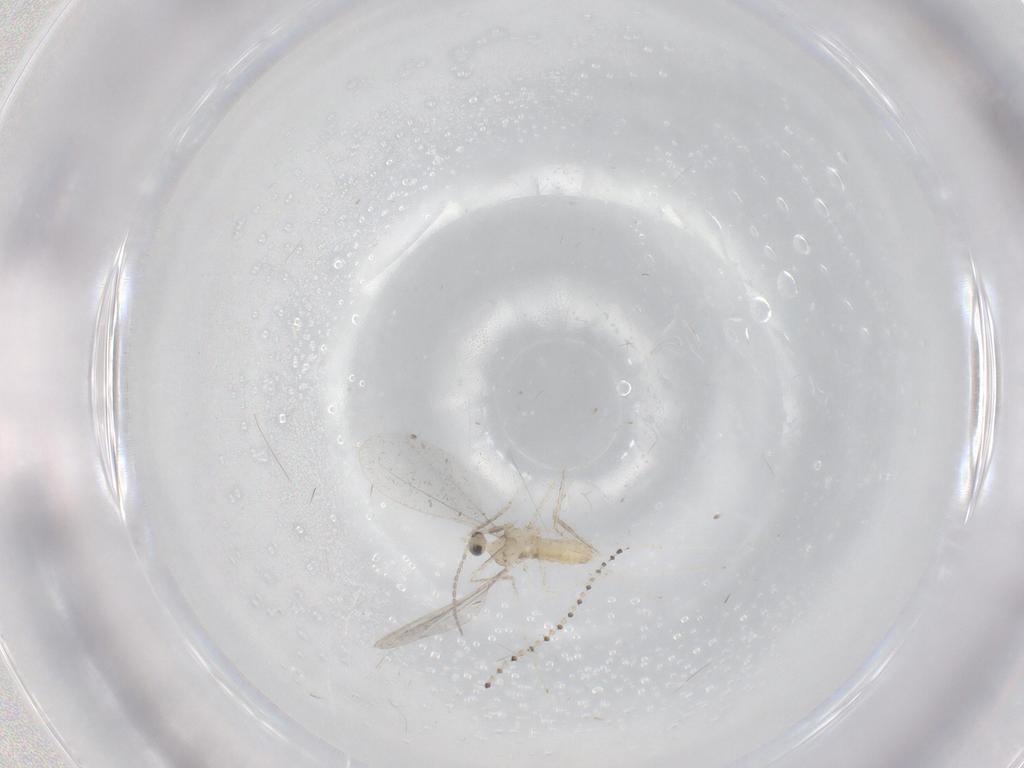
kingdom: Animalia
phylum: Arthropoda
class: Insecta
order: Diptera
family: Cecidomyiidae
